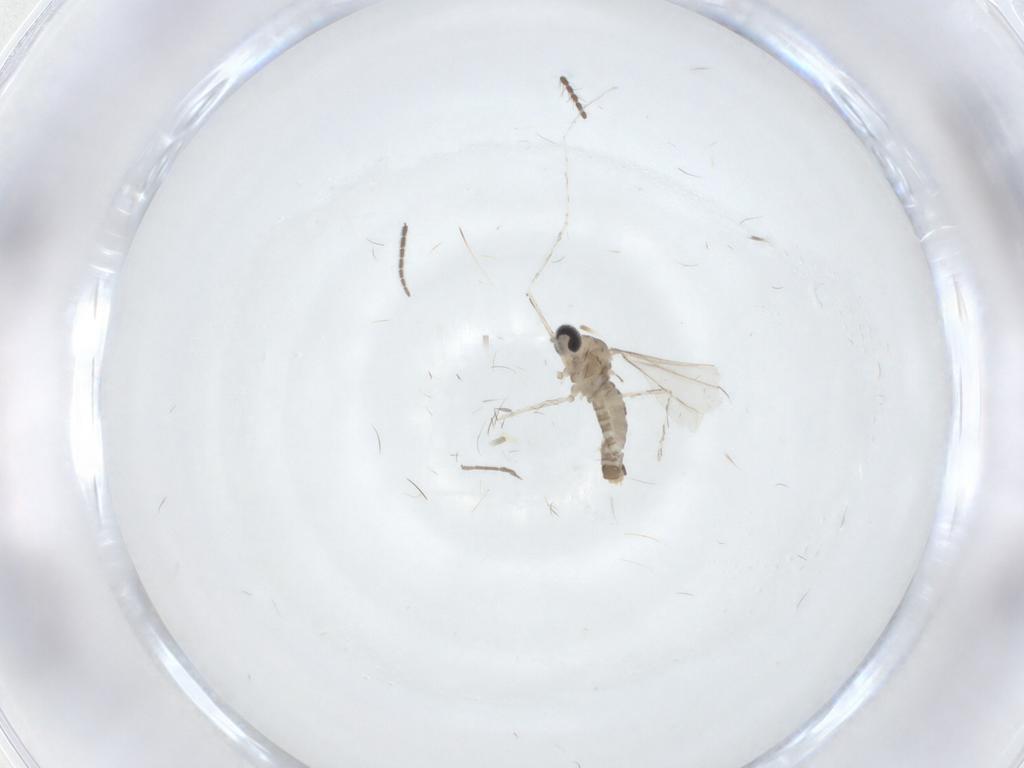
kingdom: Animalia
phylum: Arthropoda
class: Insecta
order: Diptera
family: Cecidomyiidae
